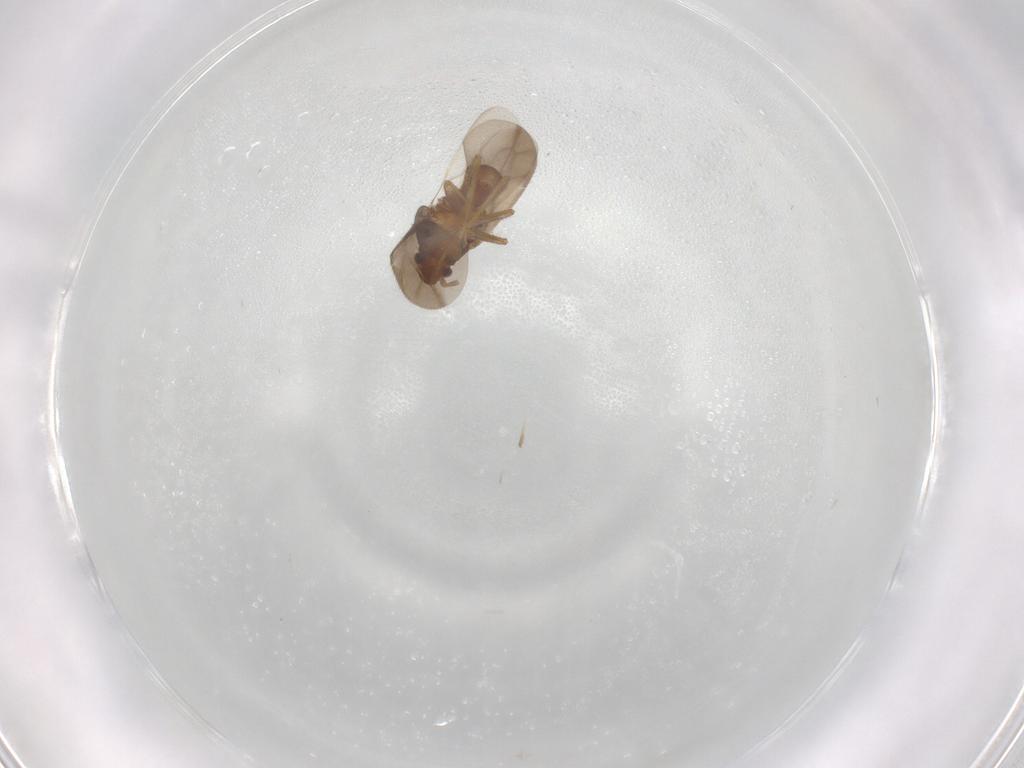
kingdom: Animalia
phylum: Arthropoda
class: Insecta
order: Hemiptera
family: Ceratocombidae
